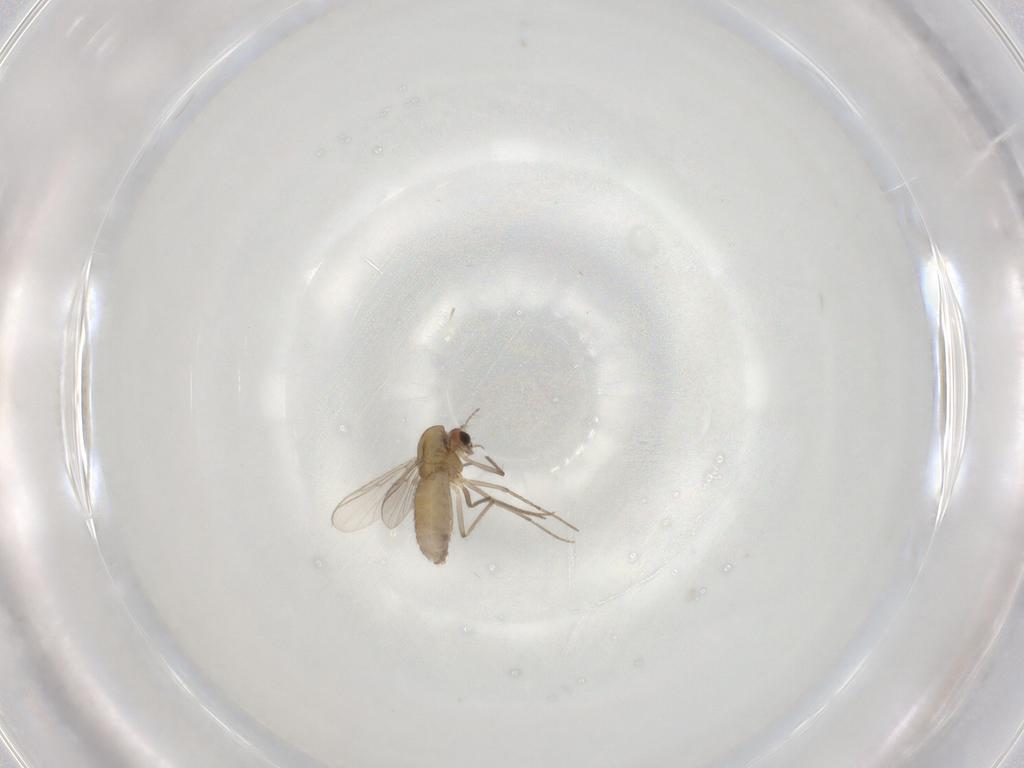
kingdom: Animalia
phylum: Arthropoda
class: Insecta
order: Diptera
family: Chironomidae
